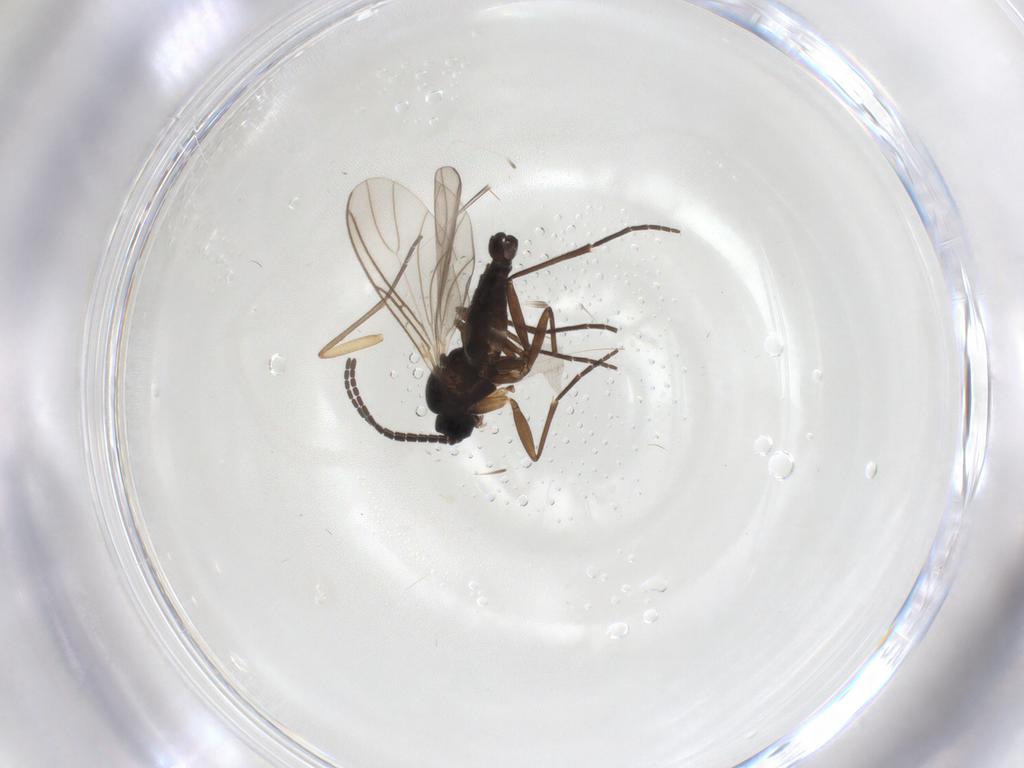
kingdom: Animalia
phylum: Arthropoda
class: Insecta
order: Diptera
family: Sciaridae
